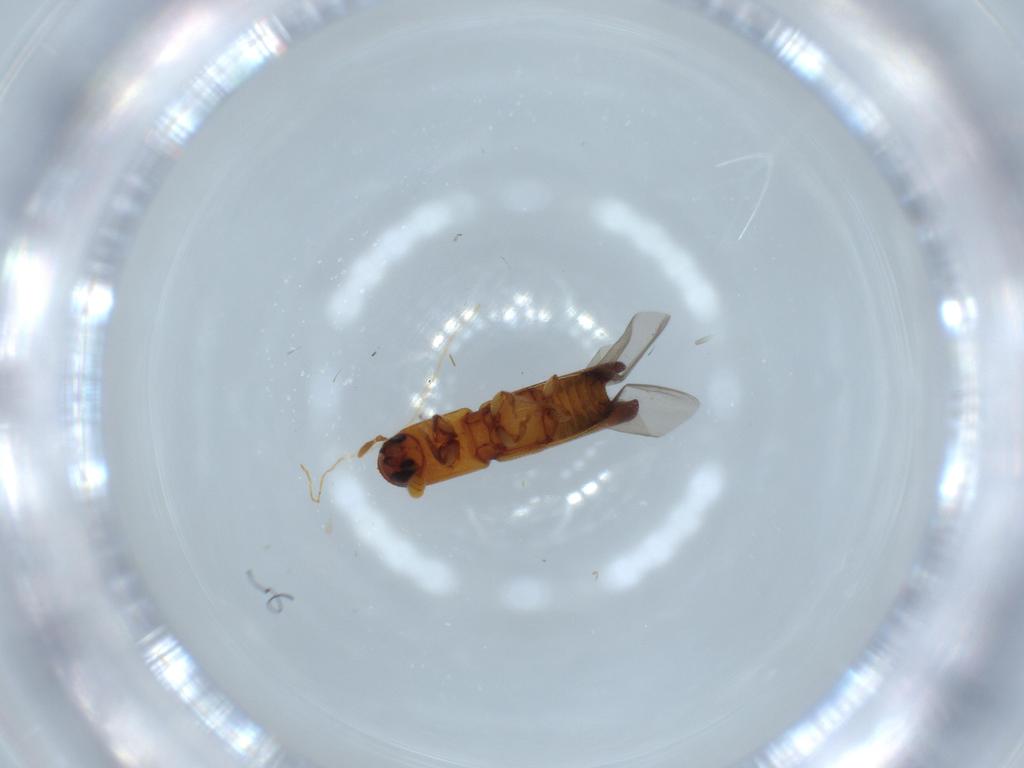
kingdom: Animalia
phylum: Arthropoda
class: Insecta
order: Coleoptera
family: Curculionidae
